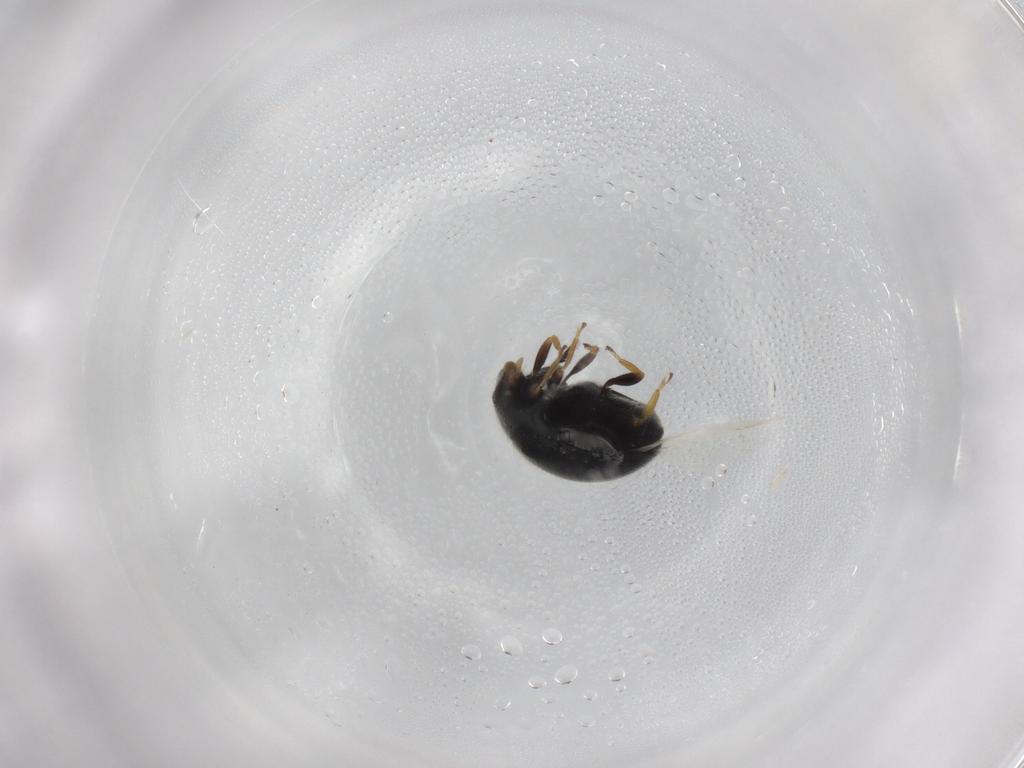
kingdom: Animalia
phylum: Arthropoda
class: Insecta
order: Coleoptera
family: Coccinellidae
